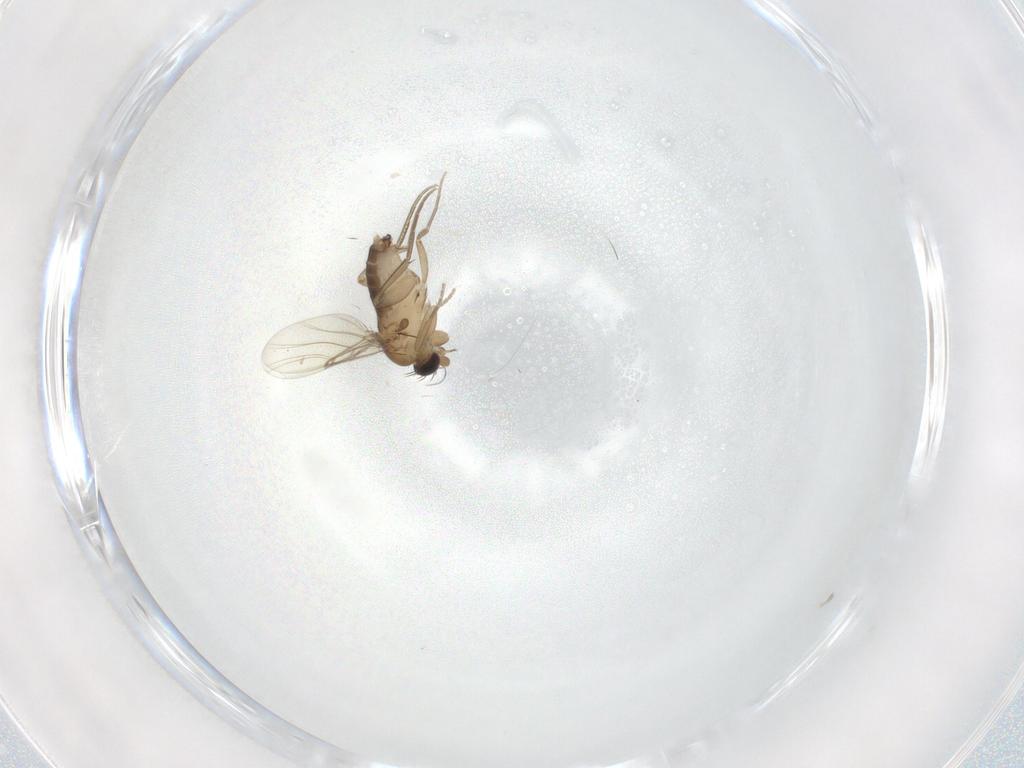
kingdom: Animalia
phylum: Arthropoda
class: Insecta
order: Diptera
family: Phoridae
